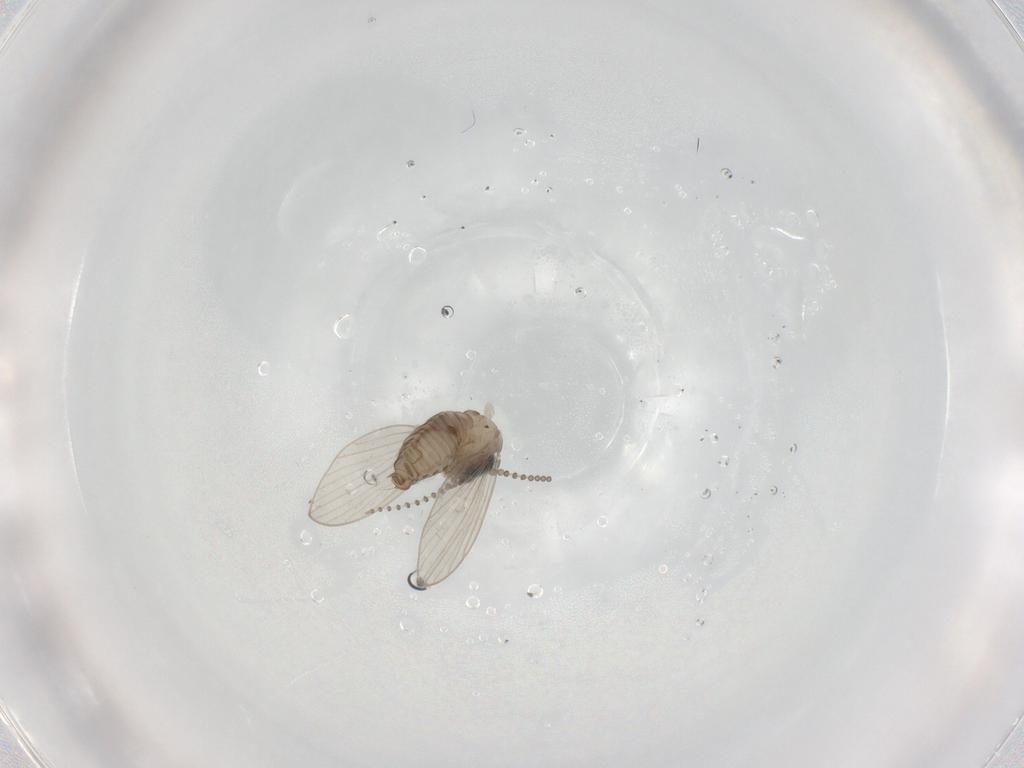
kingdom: Animalia
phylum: Arthropoda
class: Insecta
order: Diptera
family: Psychodidae
